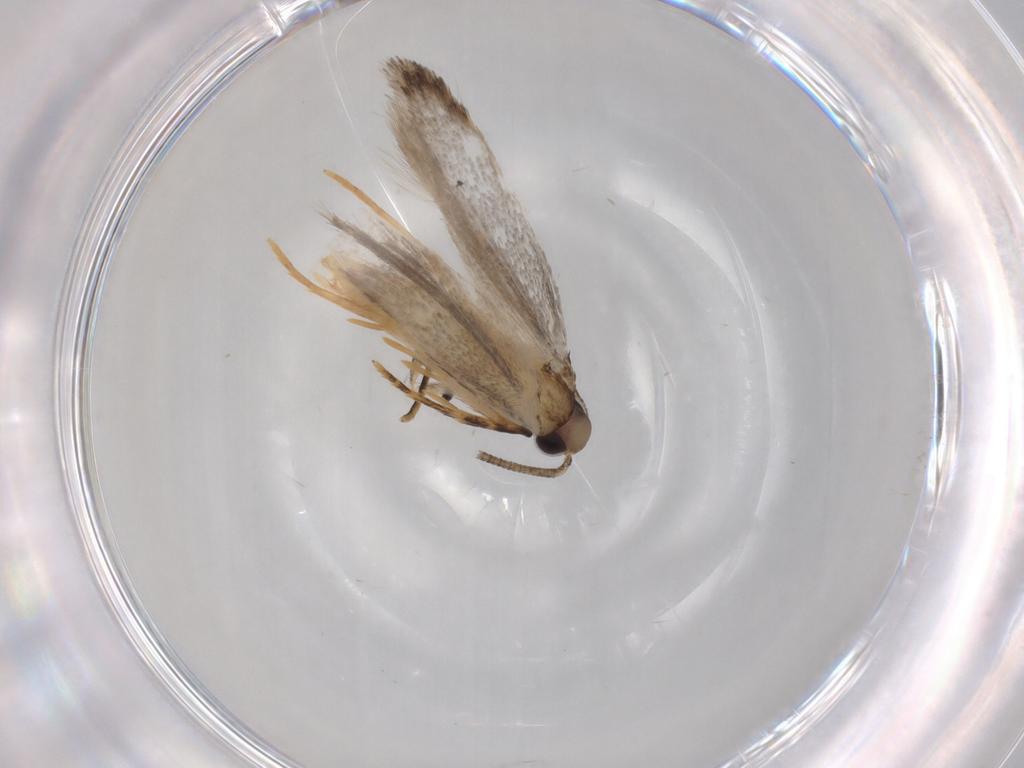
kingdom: Animalia
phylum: Arthropoda
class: Insecta
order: Lepidoptera
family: Autostichidae
